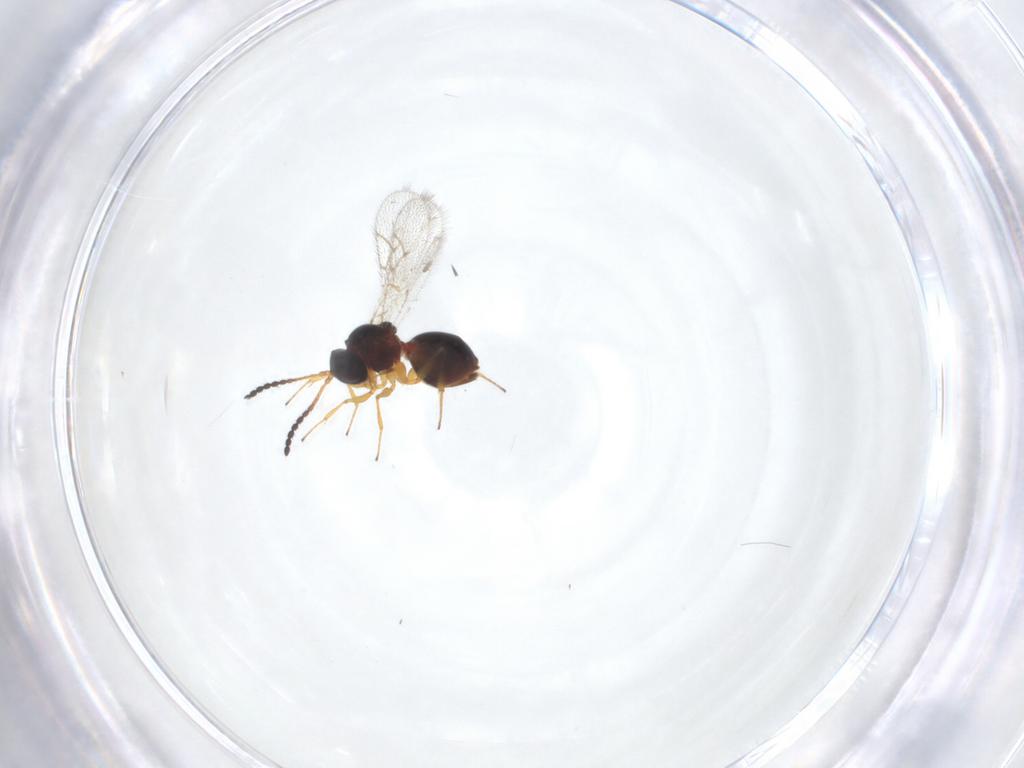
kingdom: Animalia
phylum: Arthropoda
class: Insecta
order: Hymenoptera
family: Figitidae
